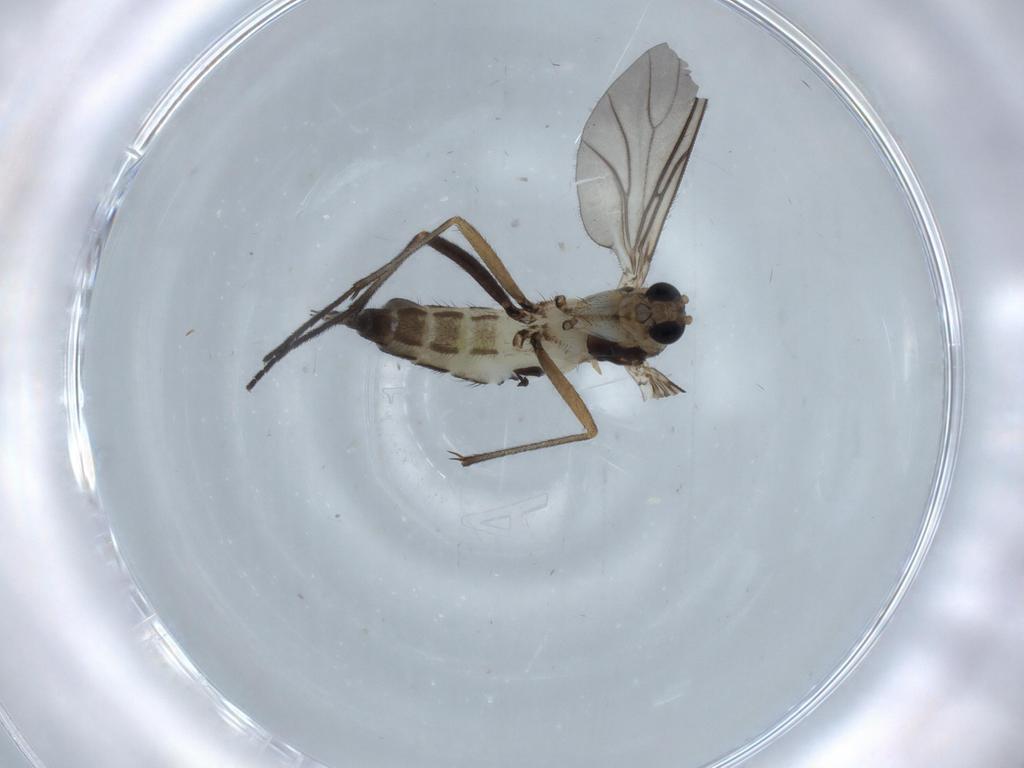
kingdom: Animalia
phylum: Arthropoda
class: Insecta
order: Diptera
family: Sciaridae
